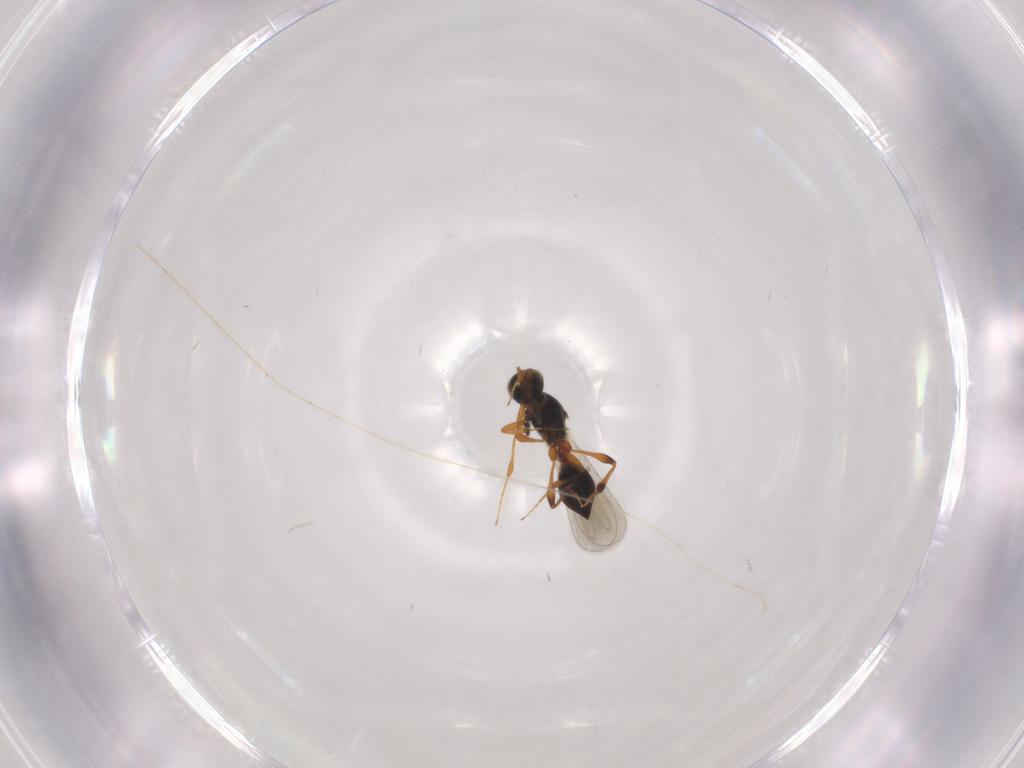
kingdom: Animalia
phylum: Arthropoda
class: Insecta
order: Hymenoptera
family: Platygastridae
